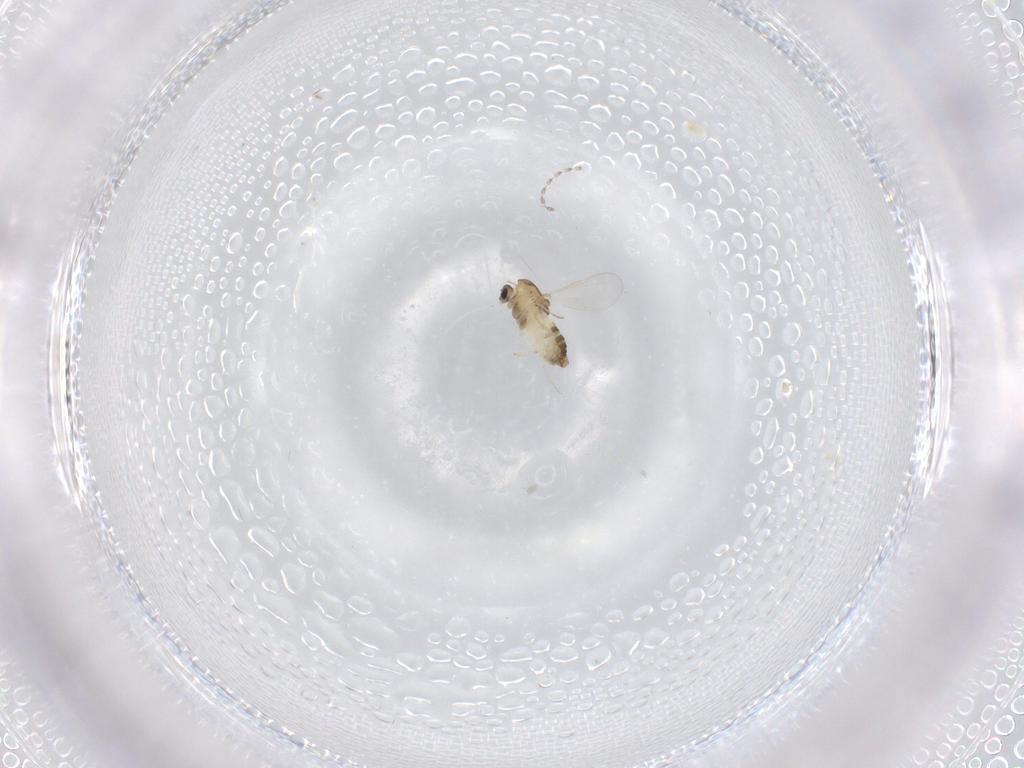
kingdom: Animalia
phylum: Arthropoda
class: Insecta
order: Diptera
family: Chironomidae
